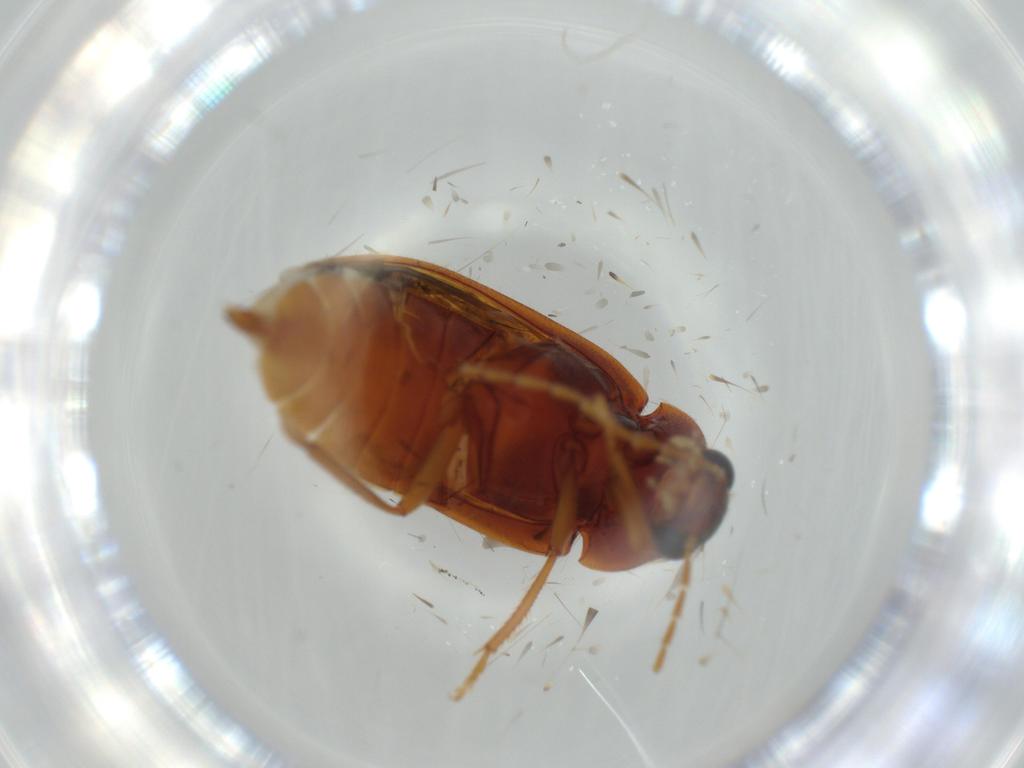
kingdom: Animalia
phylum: Arthropoda
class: Insecta
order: Coleoptera
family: Ptilodactylidae
